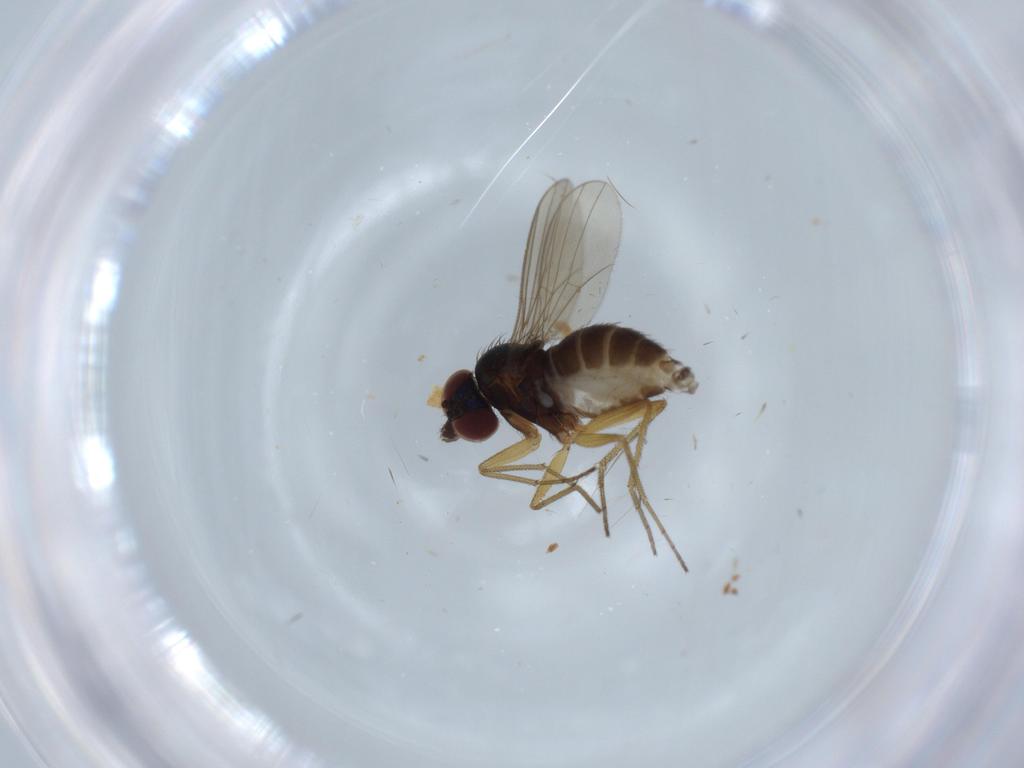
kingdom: Animalia
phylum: Arthropoda
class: Insecta
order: Diptera
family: Dolichopodidae
